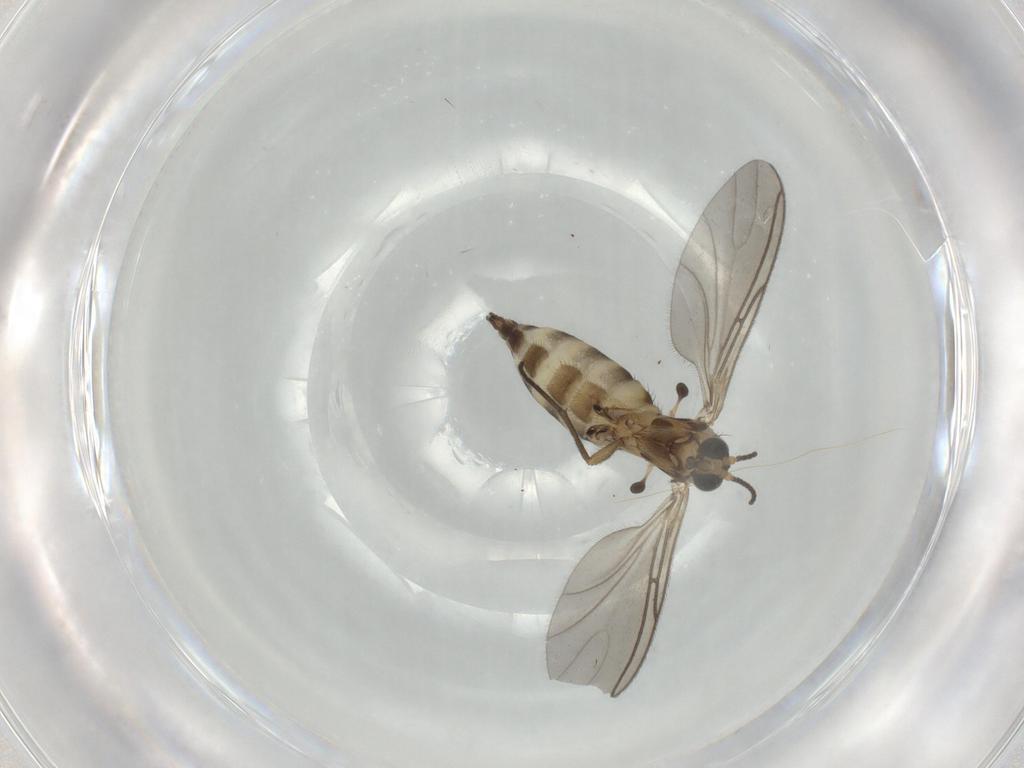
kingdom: Animalia
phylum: Arthropoda
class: Insecta
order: Diptera
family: Sciaridae
